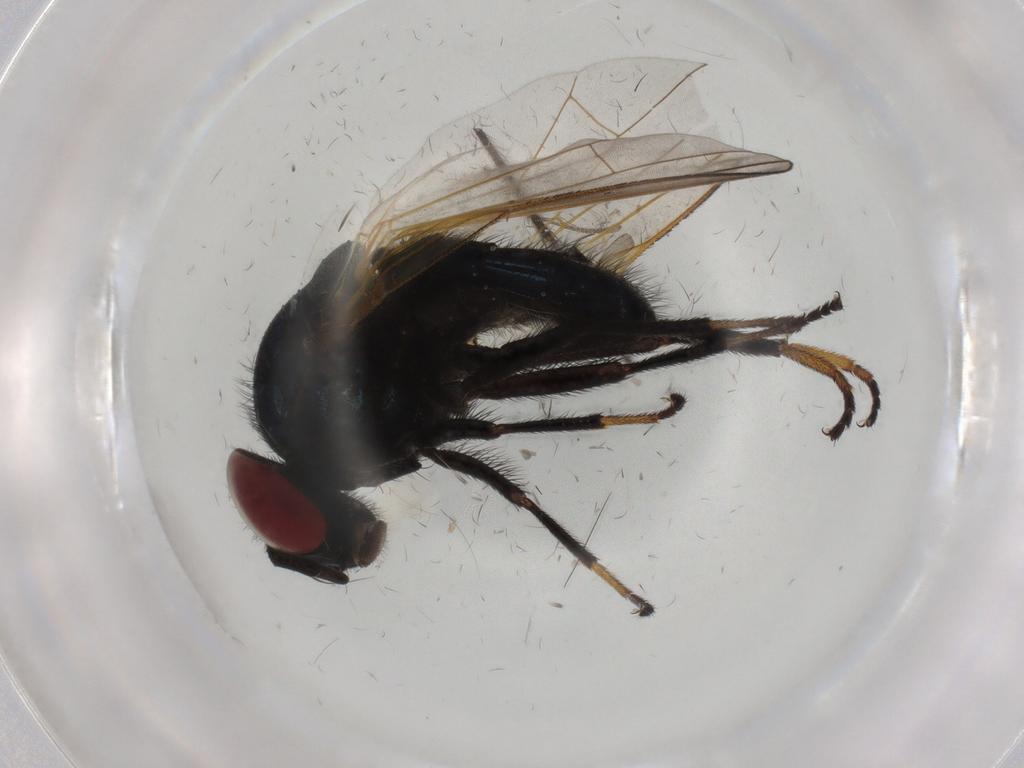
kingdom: Animalia
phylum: Arthropoda
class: Insecta
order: Diptera
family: Lonchaeidae
